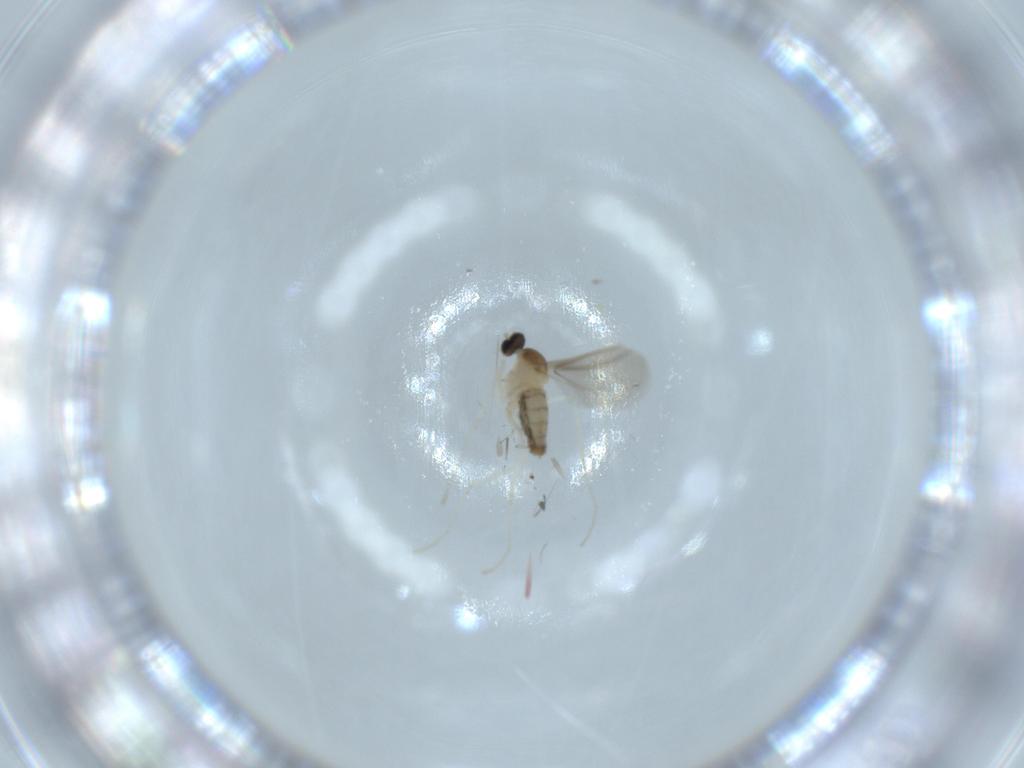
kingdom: Animalia
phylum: Arthropoda
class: Insecta
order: Diptera
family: Cecidomyiidae
